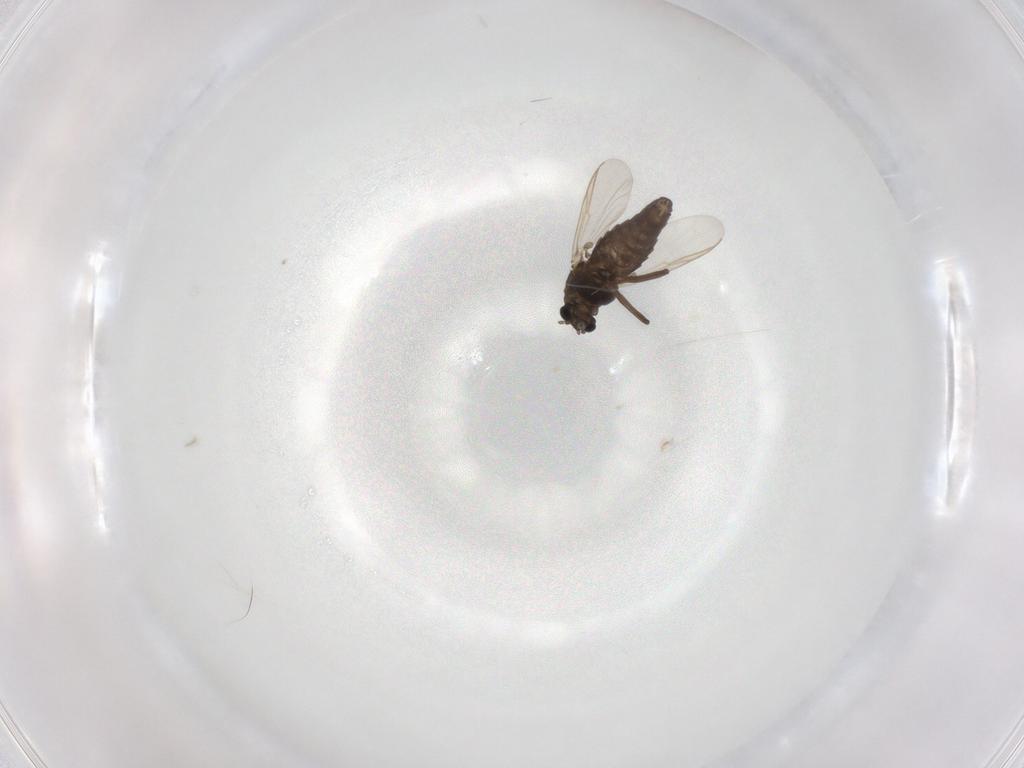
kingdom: Animalia
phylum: Arthropoda
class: Insecta
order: Diptera
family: Chironomidae
